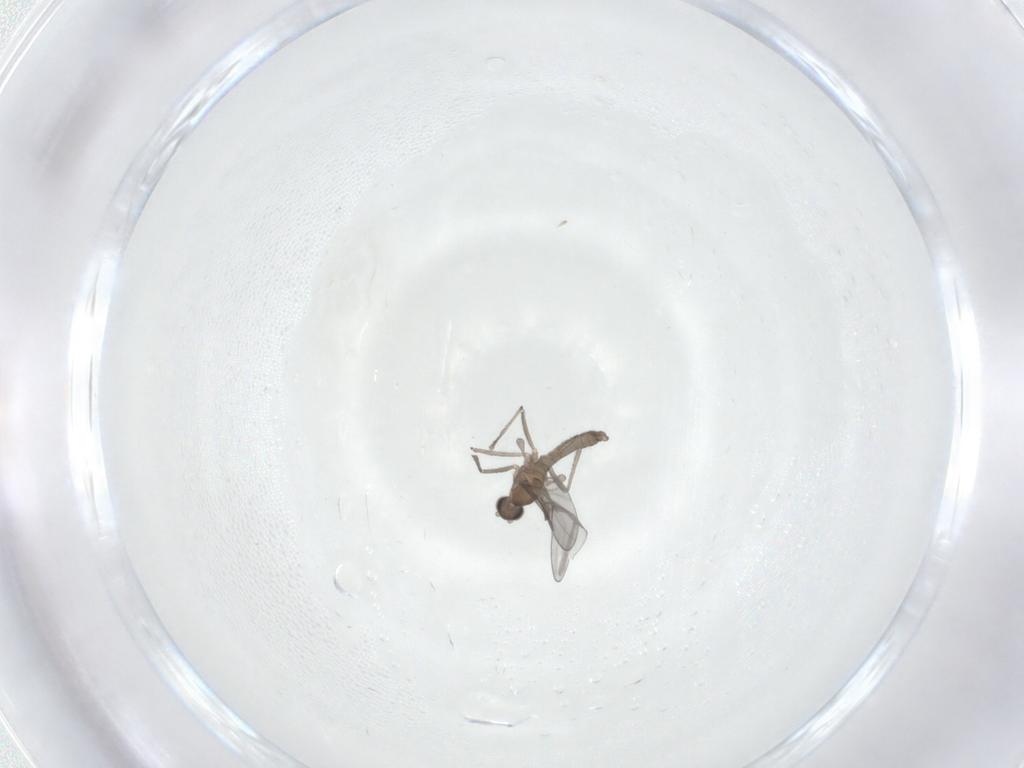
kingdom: Animalia
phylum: Arthropoda
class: Insecta
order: Diptera
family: Cecidomyiidae
